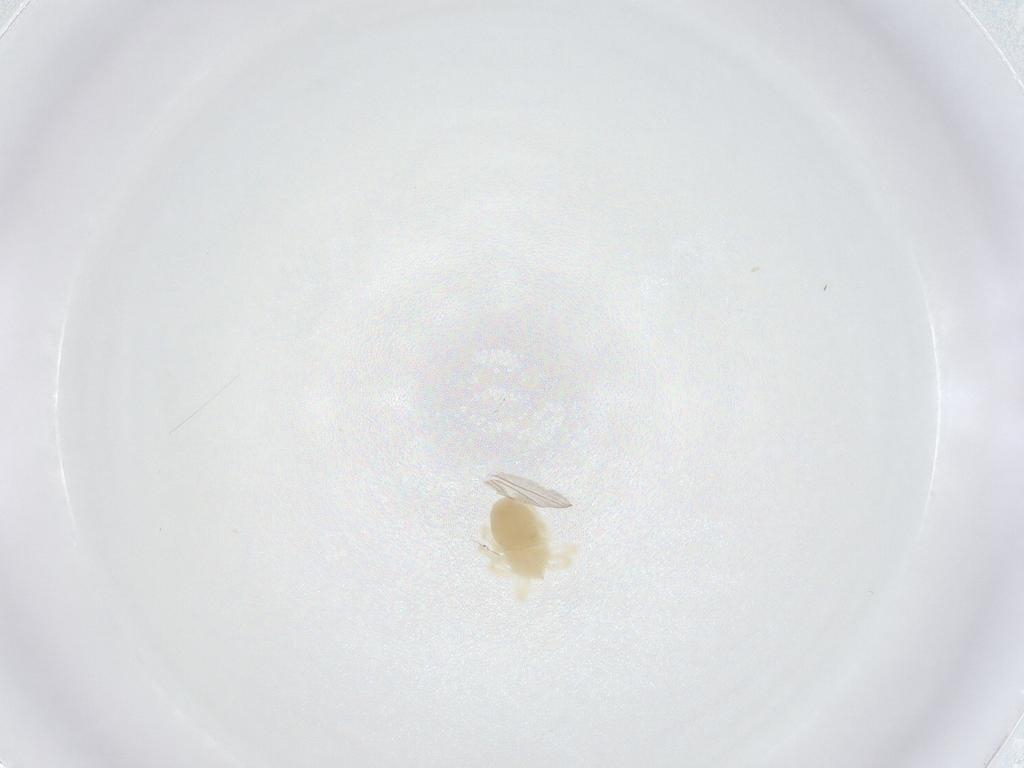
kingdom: Animalia
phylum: Arthropoda
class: Arachnida
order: Trombidiformes
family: Anystidae
